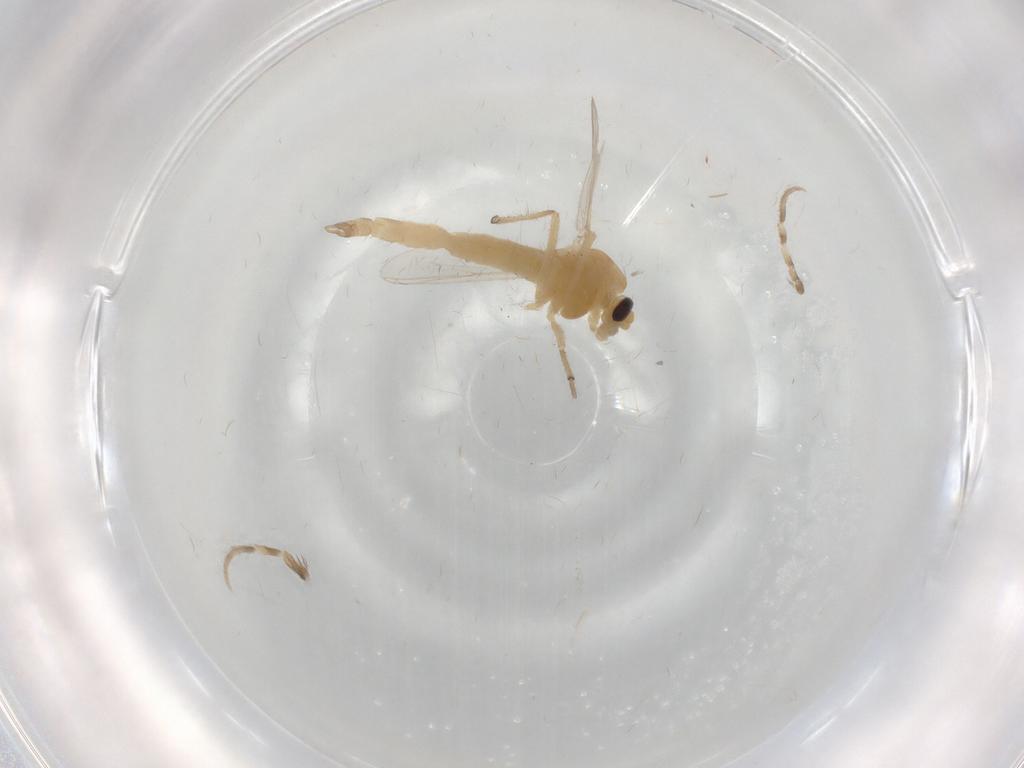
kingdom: Animalia
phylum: Arthropoda
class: Insecta
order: Diptera
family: Chironomidae
